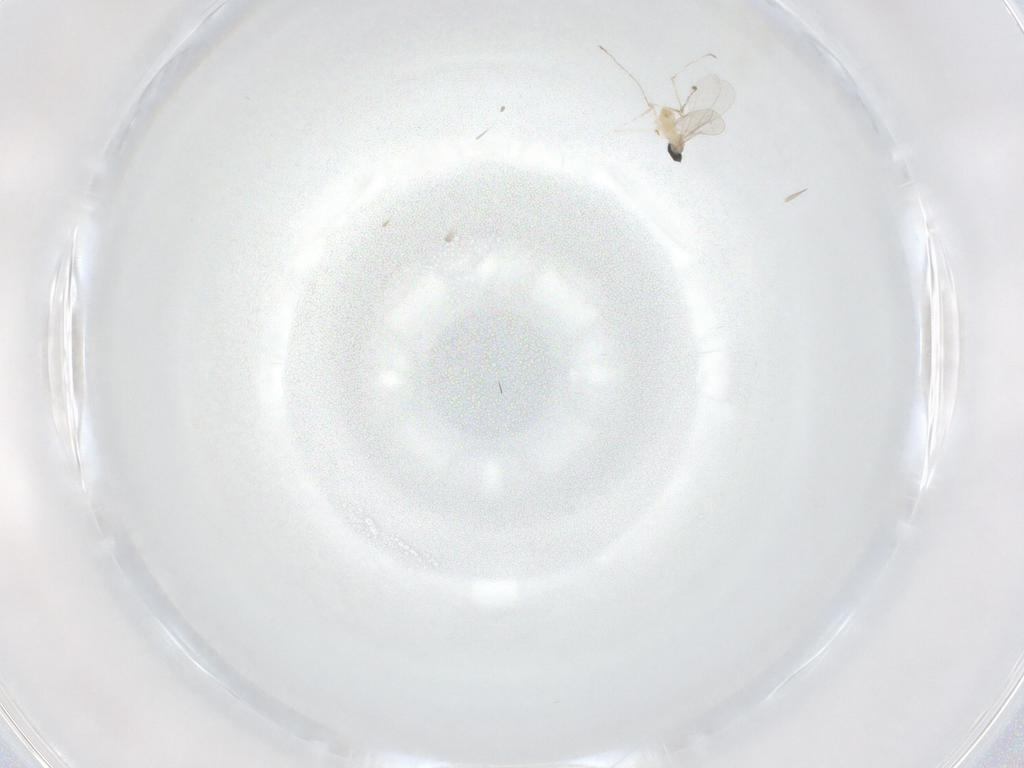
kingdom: Animalia
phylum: Arthropoda
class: Insecta
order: Diptera
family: Cecidomyiidae
